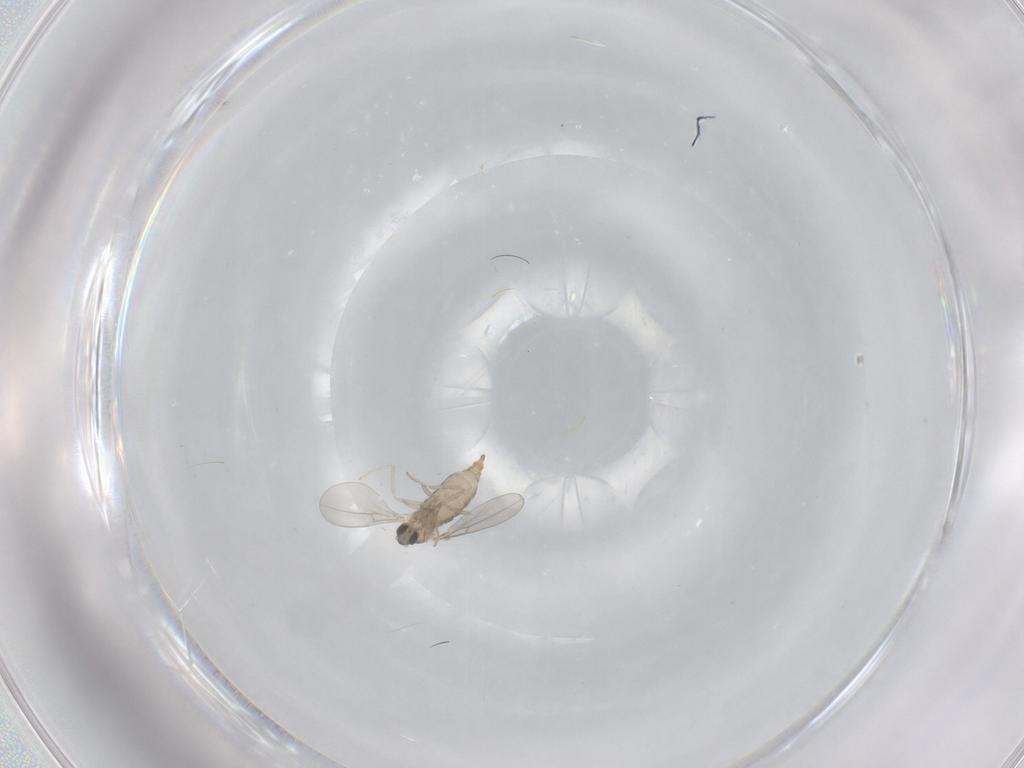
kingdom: Animalia
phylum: Arthropoda
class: Insecta
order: Diptera
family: Cecidomyiidae
